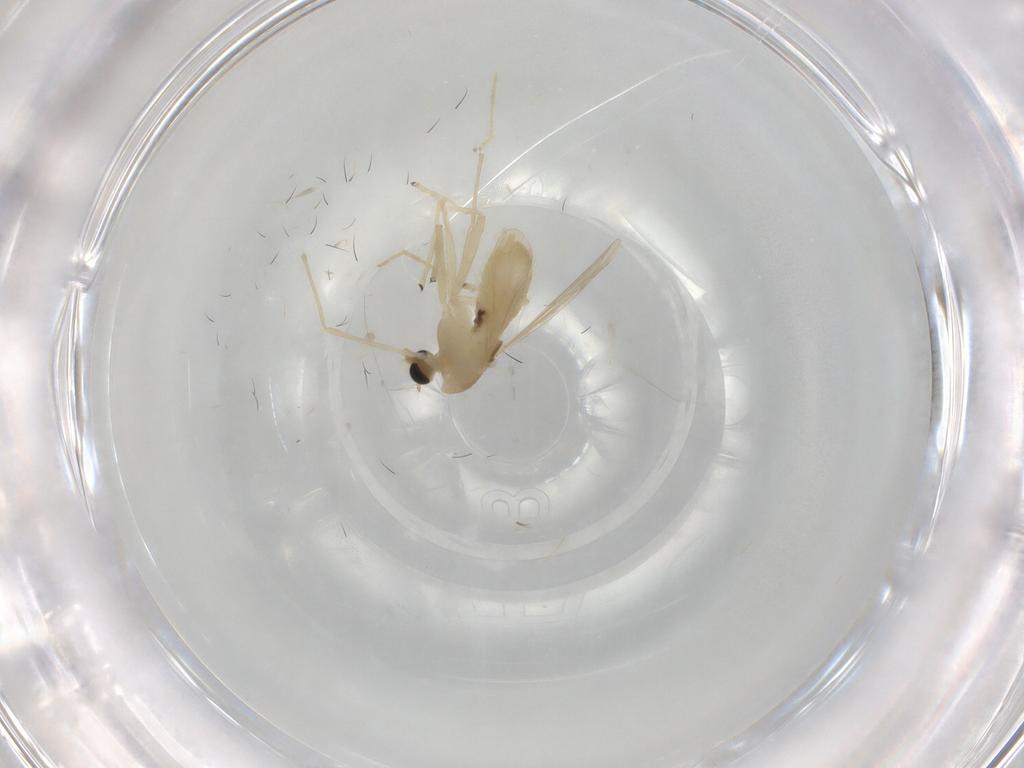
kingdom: Animalia
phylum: Arthropoda
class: Insecta
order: Diptera
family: Chironomidae
